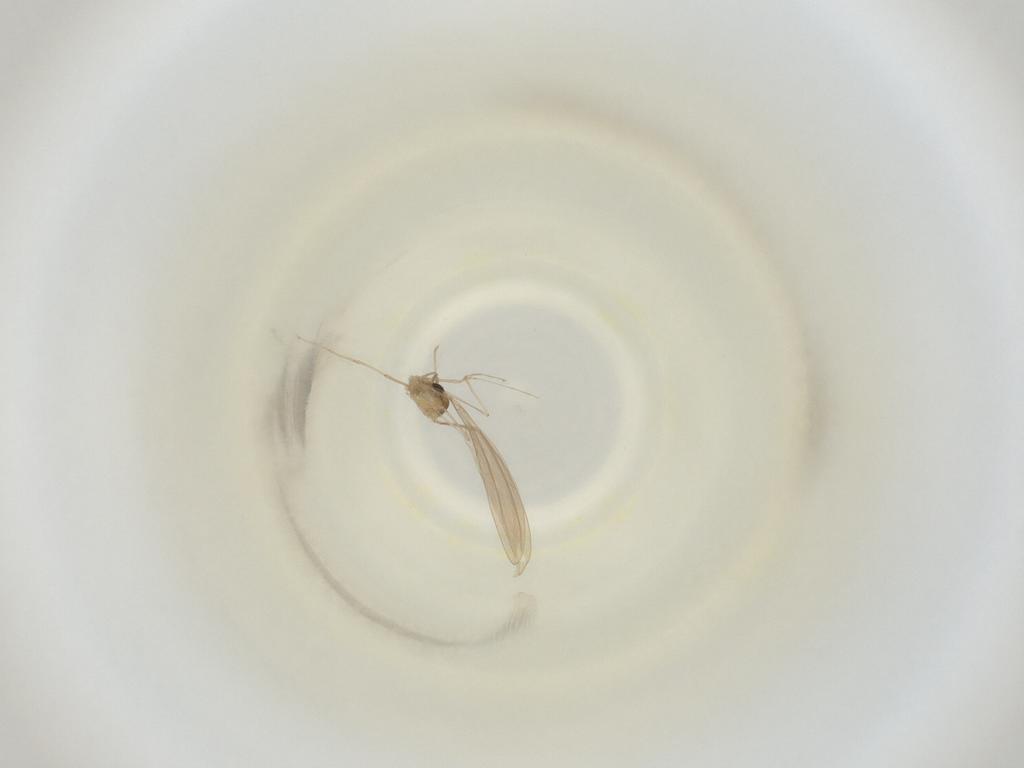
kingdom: Animalia
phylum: Arthropoda
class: Insecta
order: Diptera
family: Cecidomyiidae
